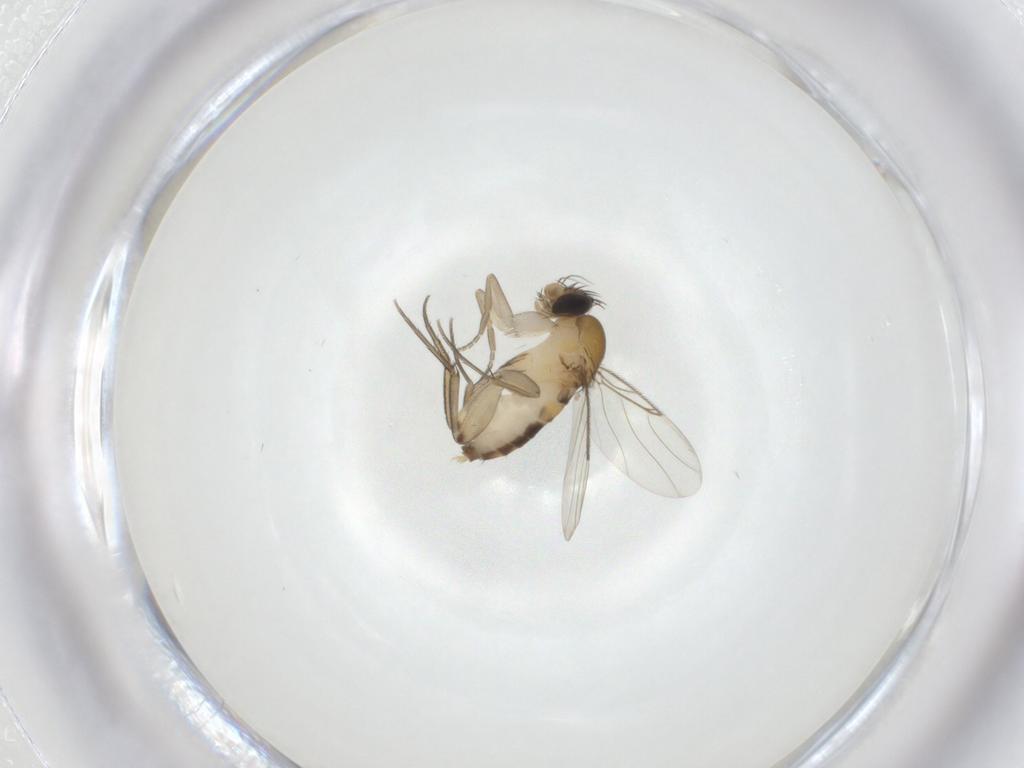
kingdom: Animalia
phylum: Arthropoda
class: Insecta
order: Diptera
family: Phoridae
